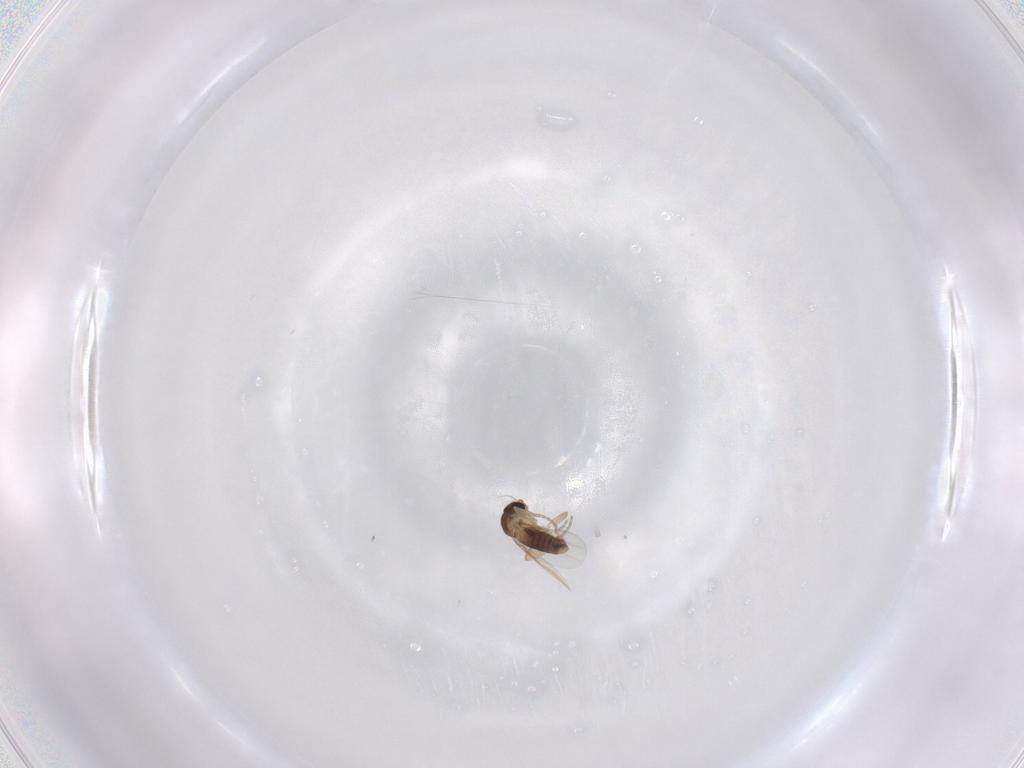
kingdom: Animalia
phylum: Arthropoda
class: Insecta
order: Diptera
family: Phoridae
